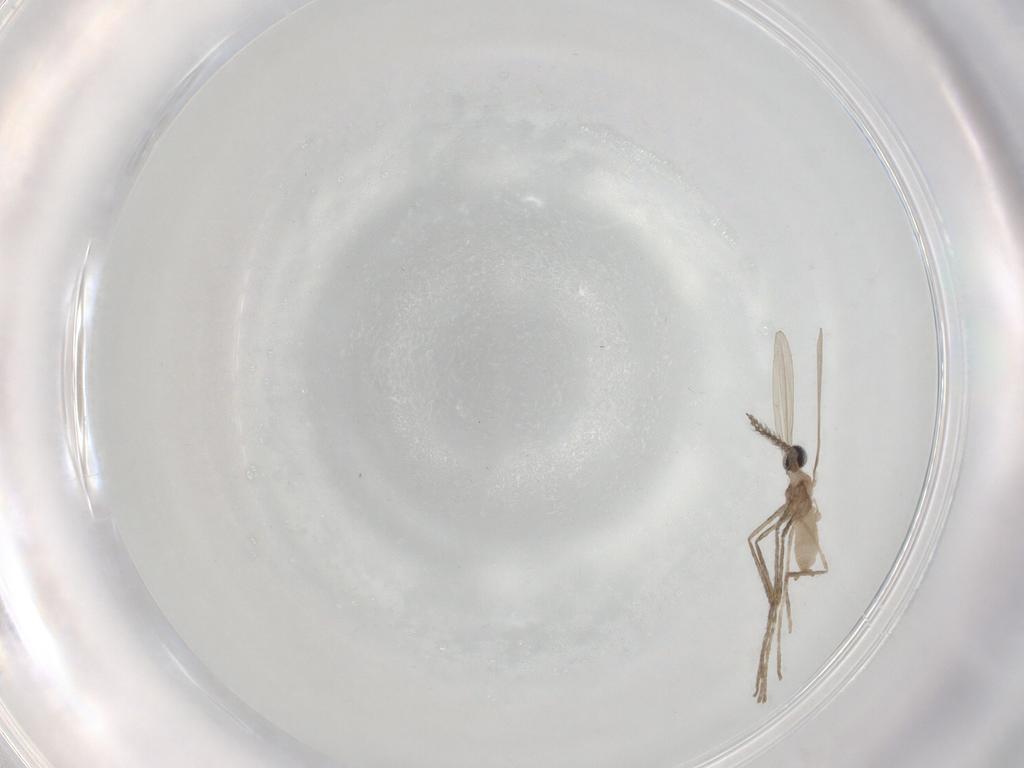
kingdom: Animalia
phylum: Arthropoda
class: Insecta
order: Diptera
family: Cecidomyiidae
